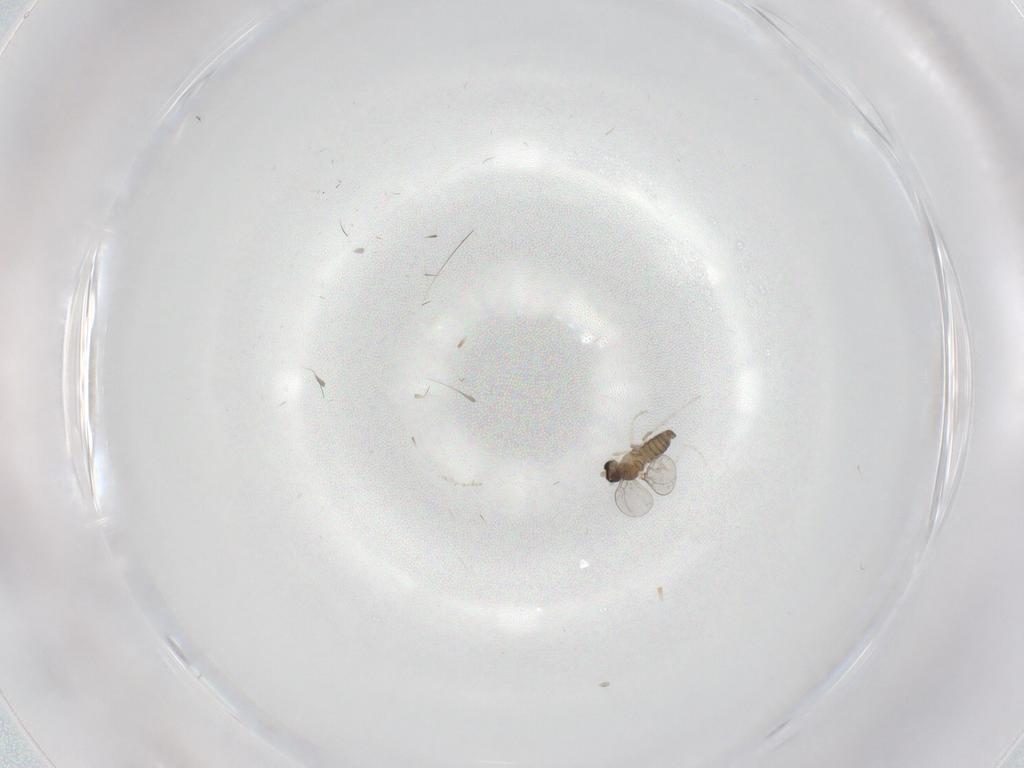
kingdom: Animalia
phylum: Arthropoda
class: Insecta
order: Diptera
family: Cecidomyiidae
